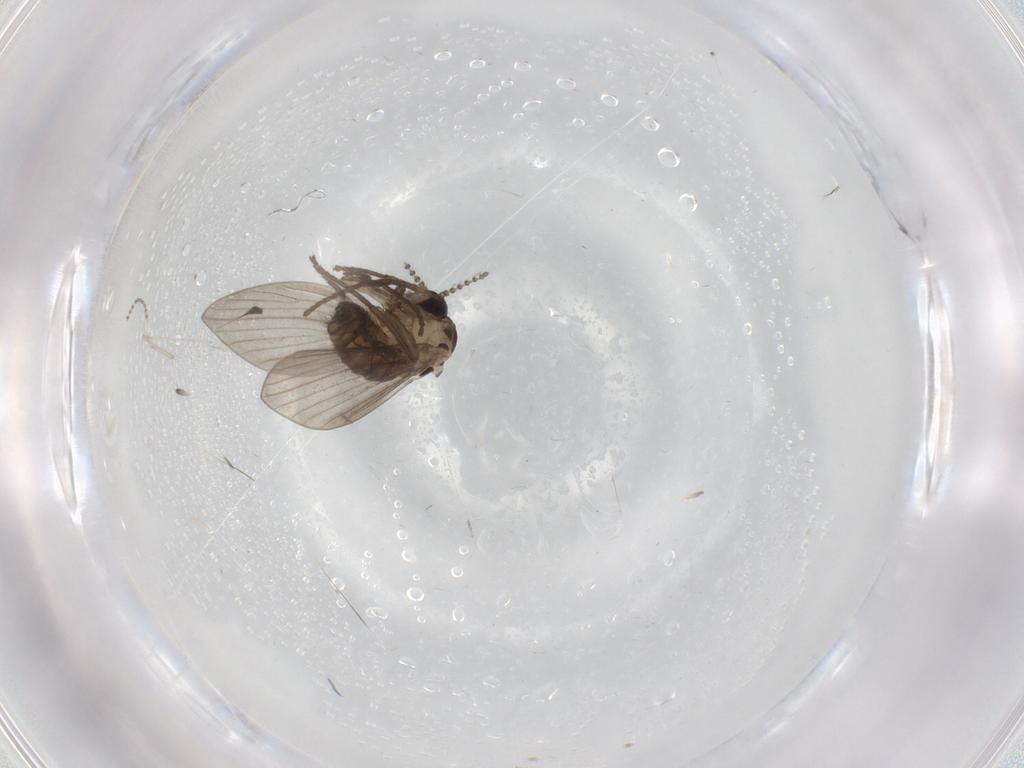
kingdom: Animalia
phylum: Arthropoda
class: Insecta
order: Diptera
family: Psychodidae
